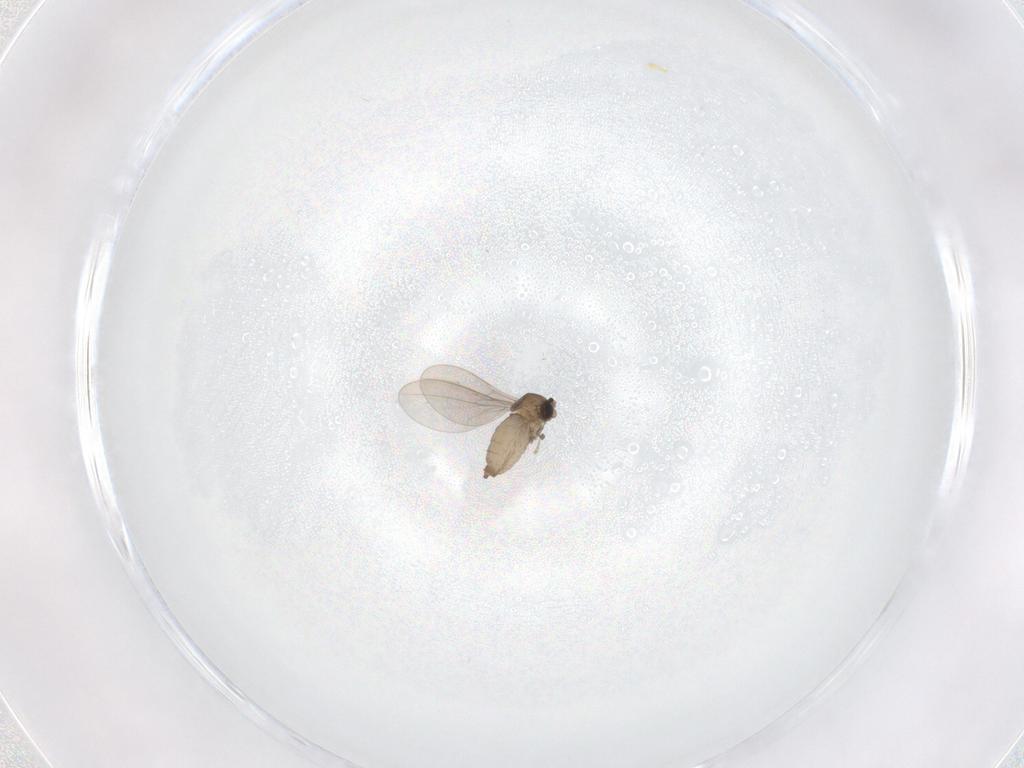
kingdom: Animalia
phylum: Arthropoda
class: Insecta
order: Diptera
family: Cecidomyiidae
